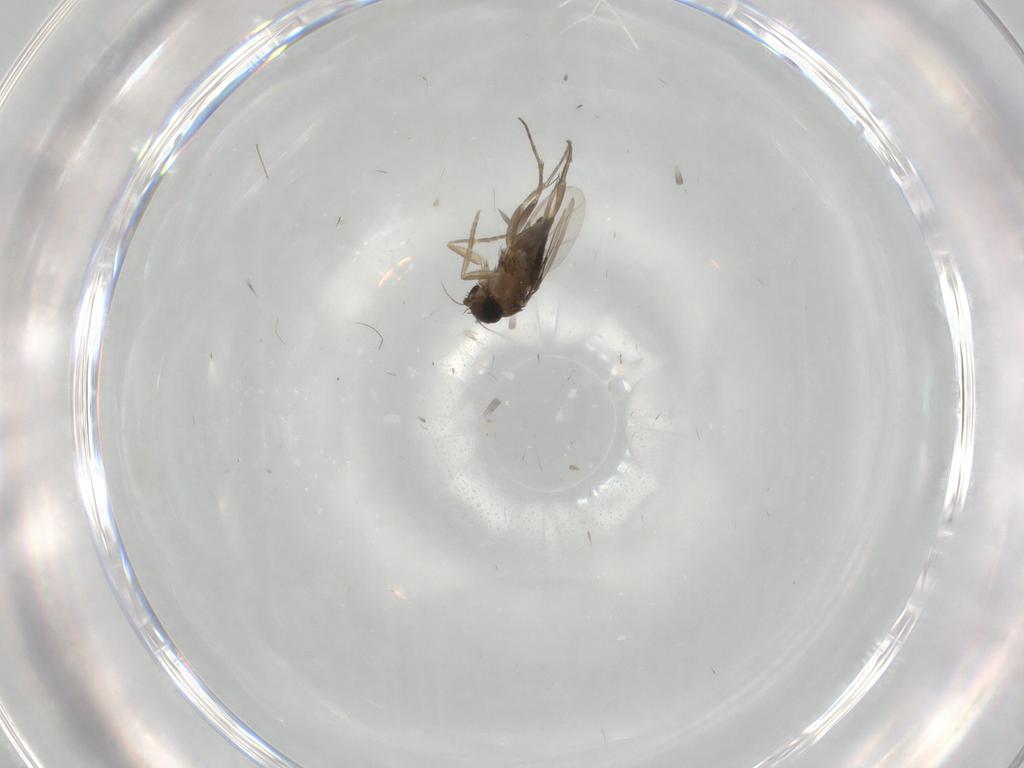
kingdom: Animalia
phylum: Arthropoda
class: Insecta
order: Diptera
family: Phoridae
